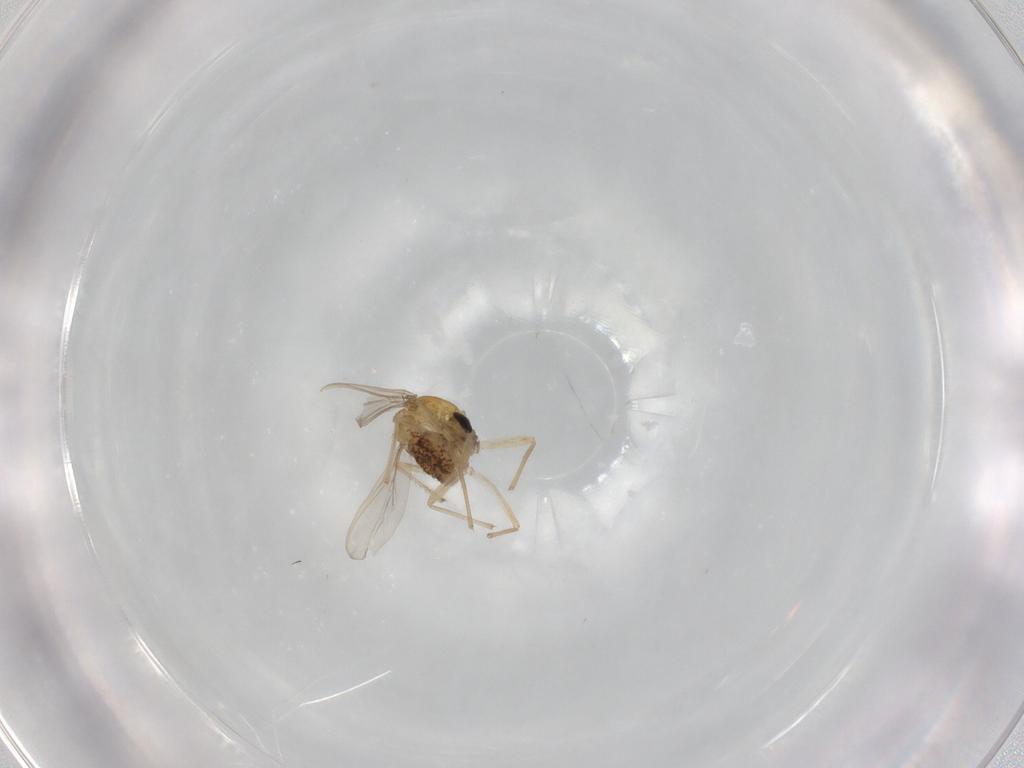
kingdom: Animalia
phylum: Arthropoda
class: Insecta
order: Diptera
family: Chironomidae
